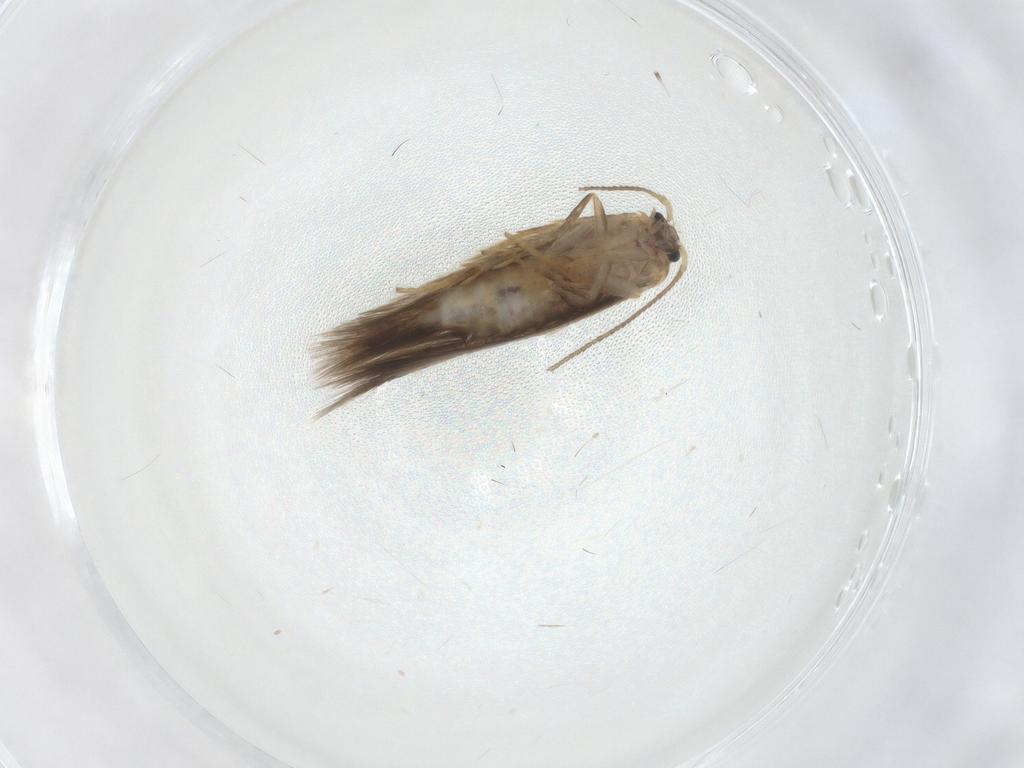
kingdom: Animalia
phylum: Arthropoda
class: Insecta
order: Lepidoptera
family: Nepticulidae
